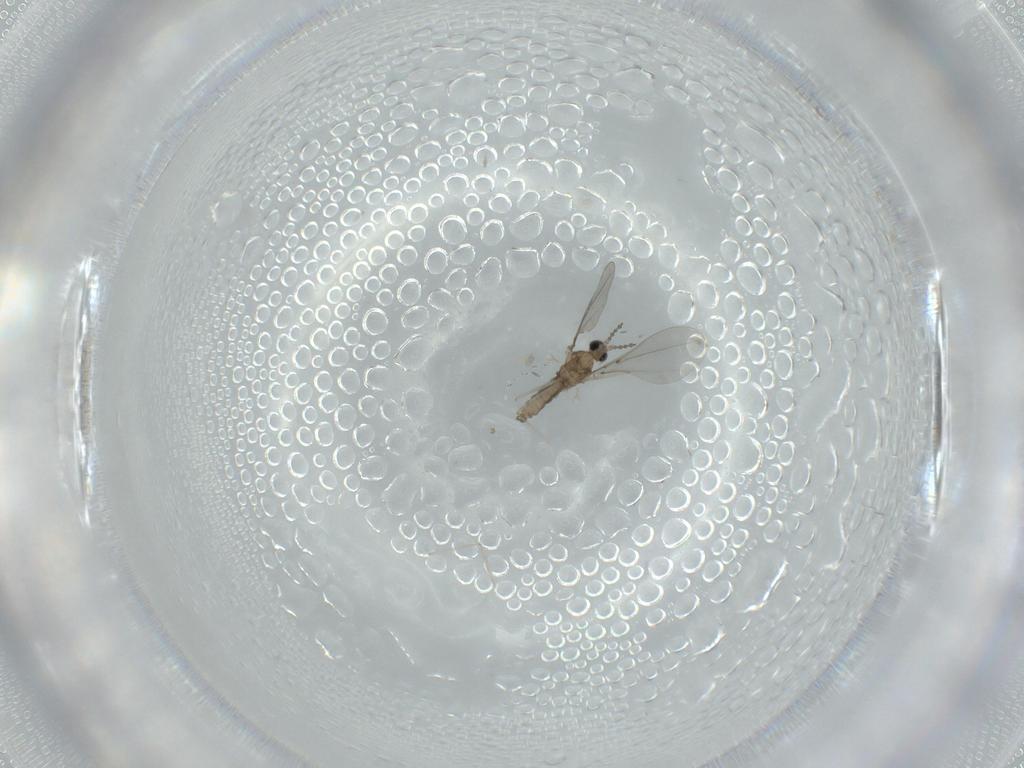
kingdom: Animalia
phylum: Arthropoda
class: Insecta
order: Diptera
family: Cecidomyiidae
